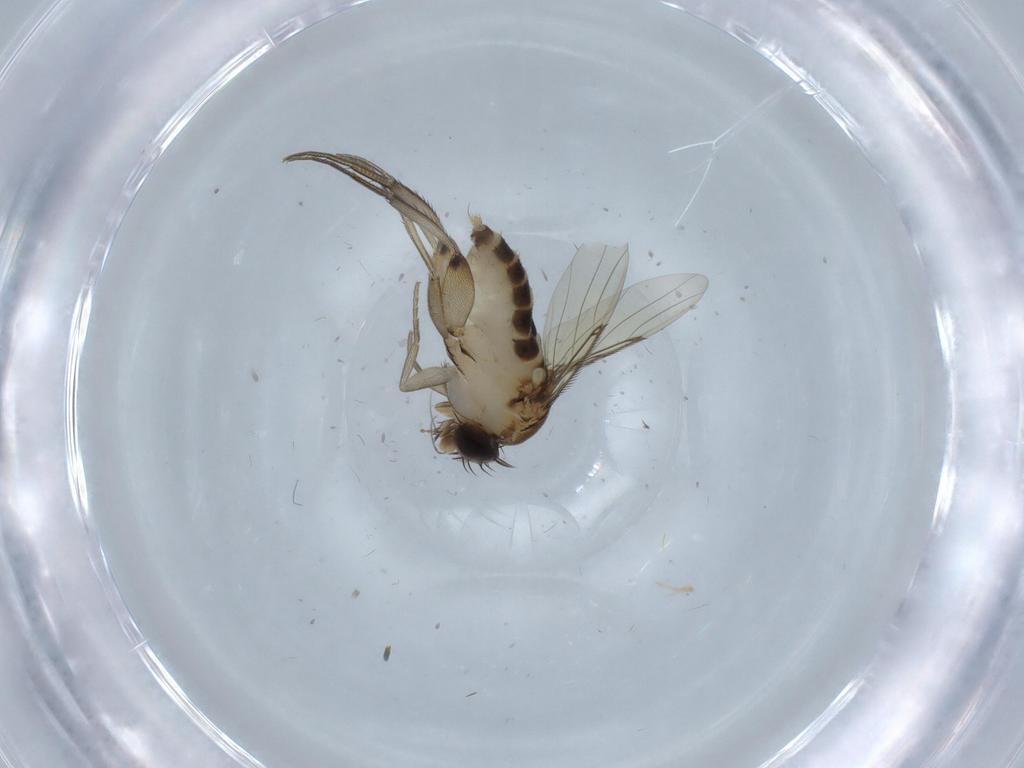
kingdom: Animalia
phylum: Arthropoda
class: Insecta
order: Diptera
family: Phoridae
